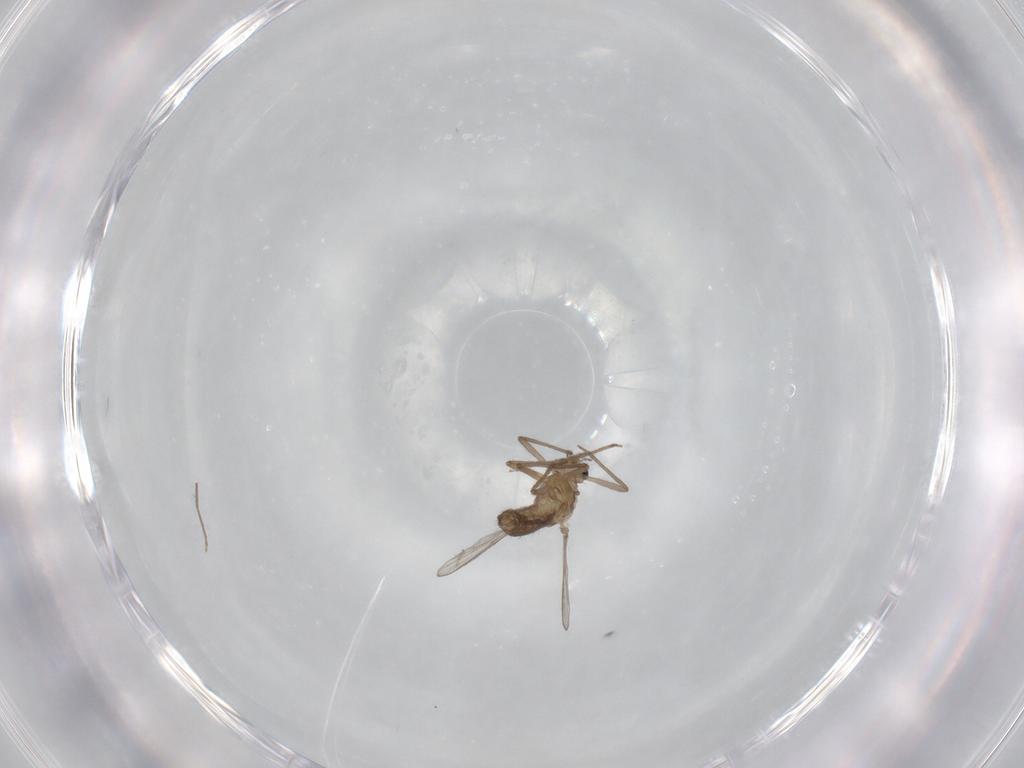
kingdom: Animalia
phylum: Arthropoda
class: Insecta
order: Diptera
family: Chironomidae
